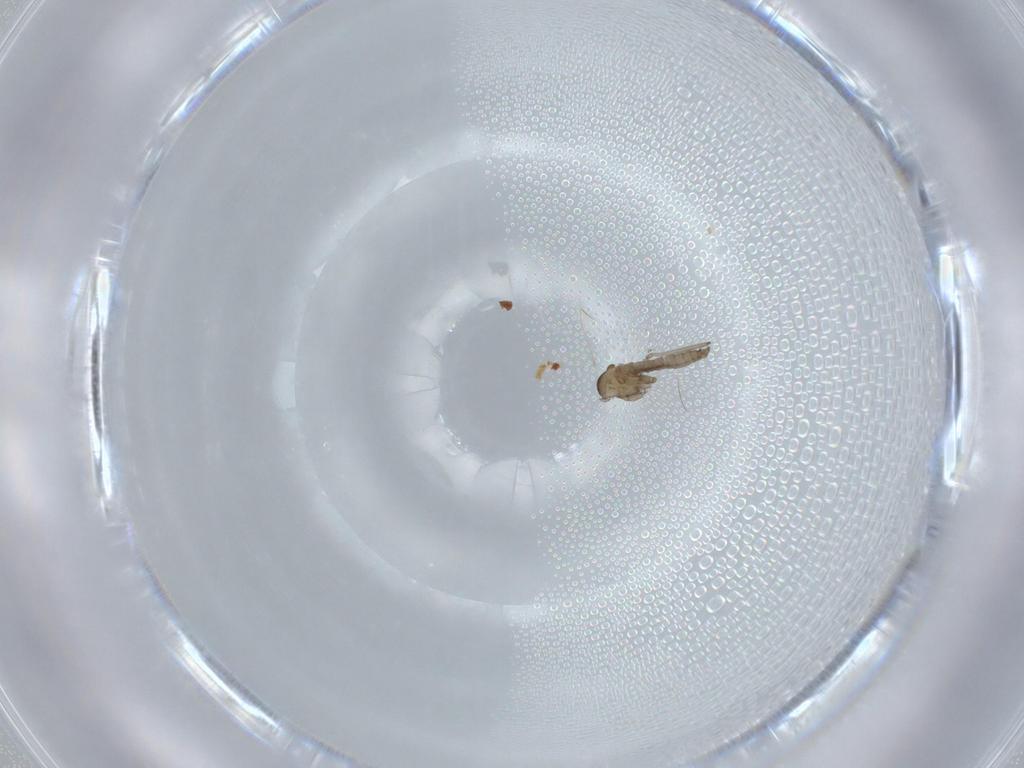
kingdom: Animalia
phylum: Arthropoda
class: Insecta
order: Diptera
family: Cecidomyiidae
